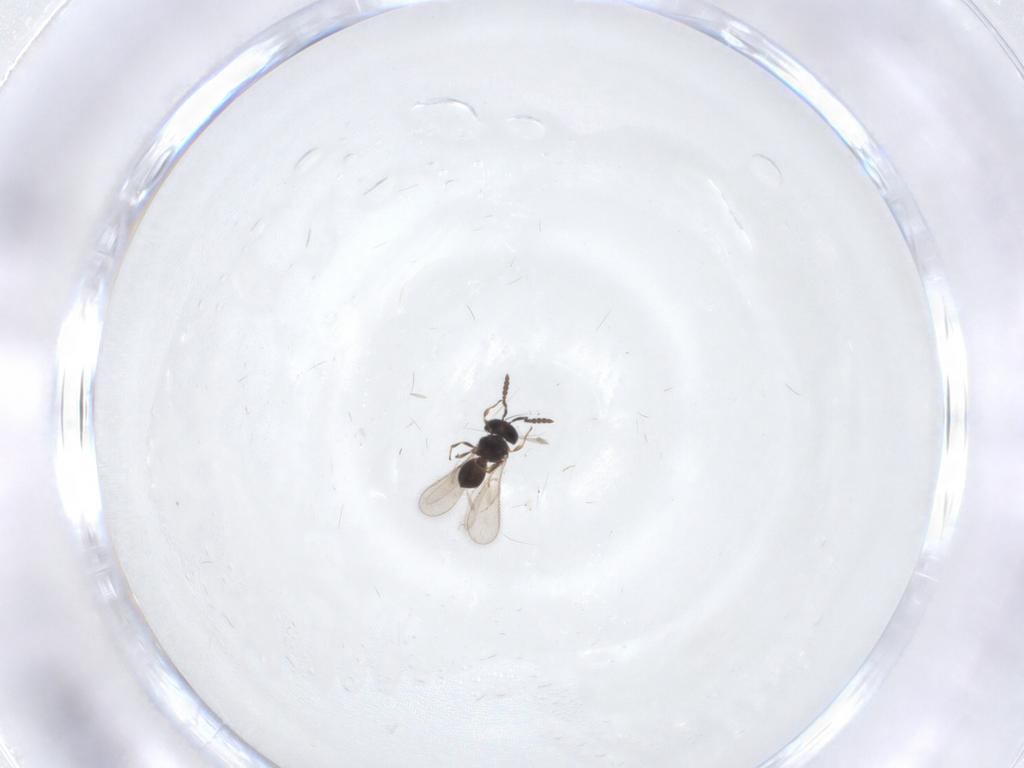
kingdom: Animalia
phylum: Arthropoda
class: Insecta
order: Hymenoptera
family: Scelionidae
